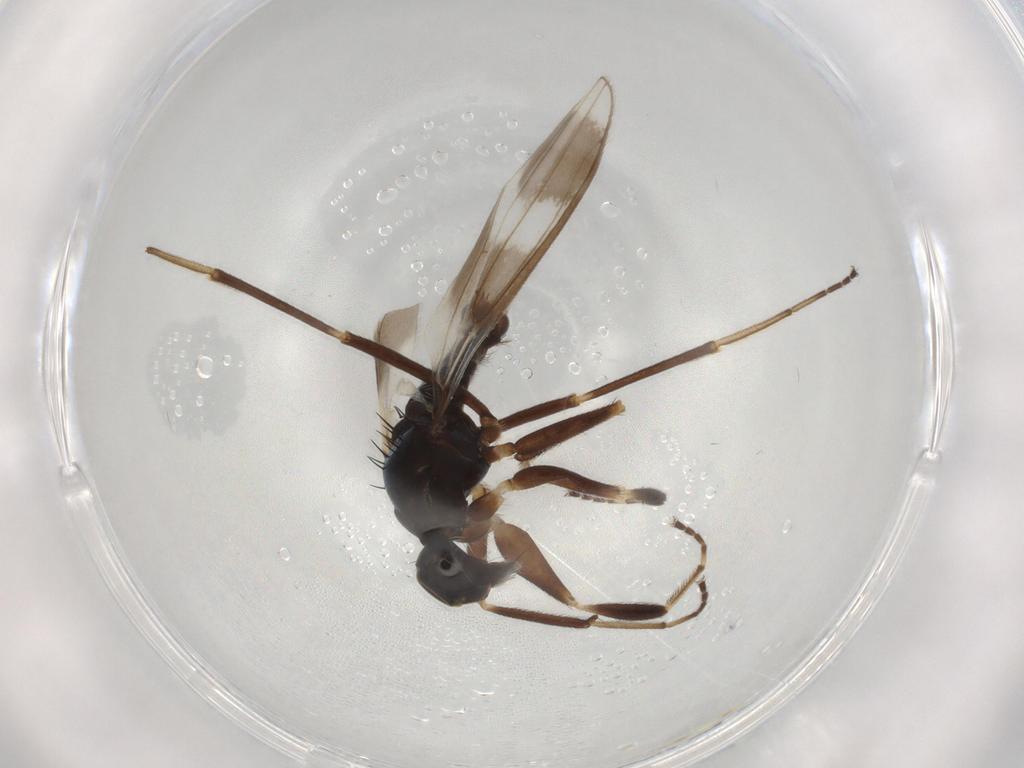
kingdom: Animalia
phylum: Arthropoda
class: Insecta
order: Diptera
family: Hybotidae
